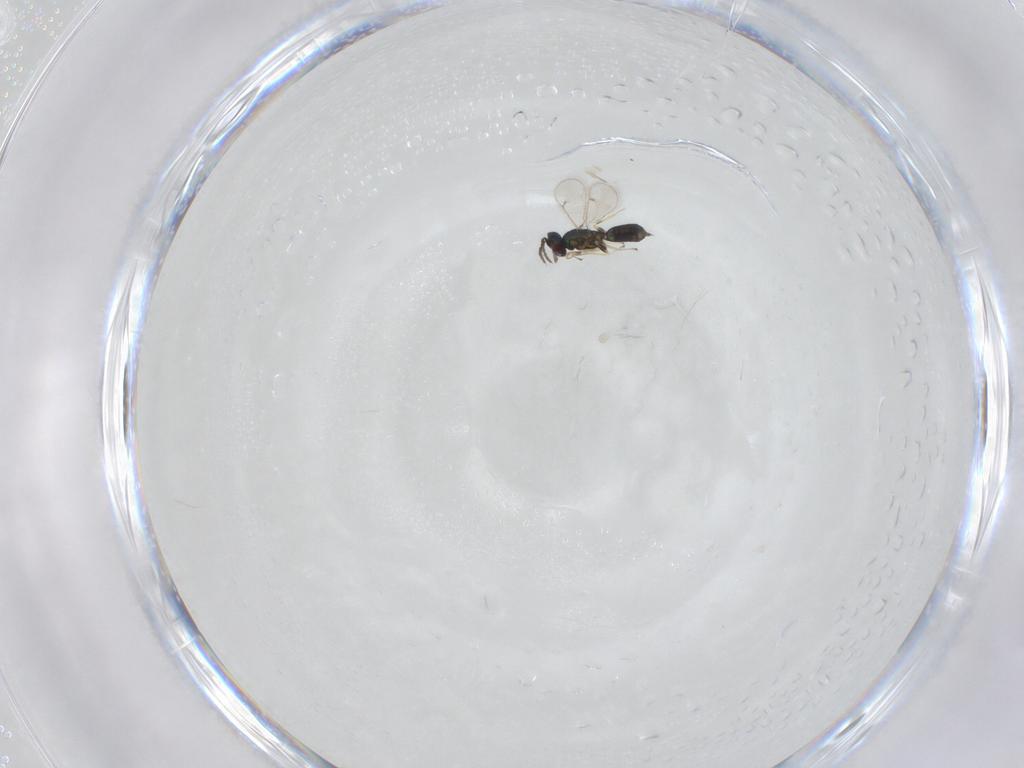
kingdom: Animalia
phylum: Arthropoda
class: Insecta
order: Hymenoptera
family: Eulophidae
